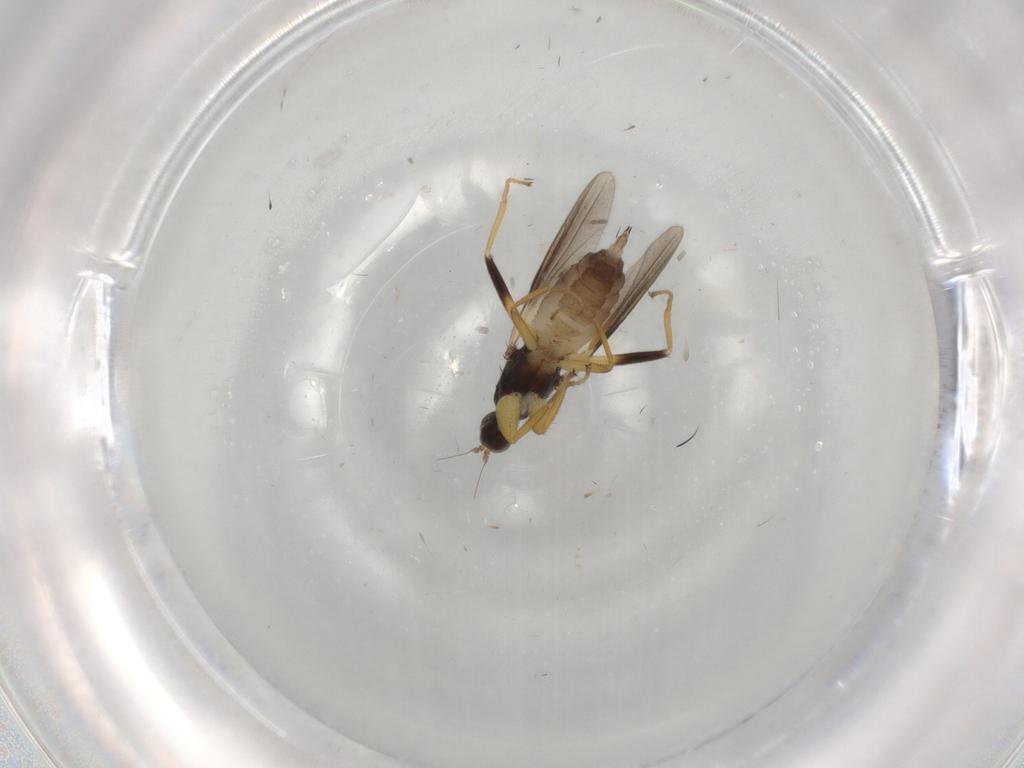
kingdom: Animalia
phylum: Arthropoda
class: Insecta
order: Diptera
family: Hybotidae
